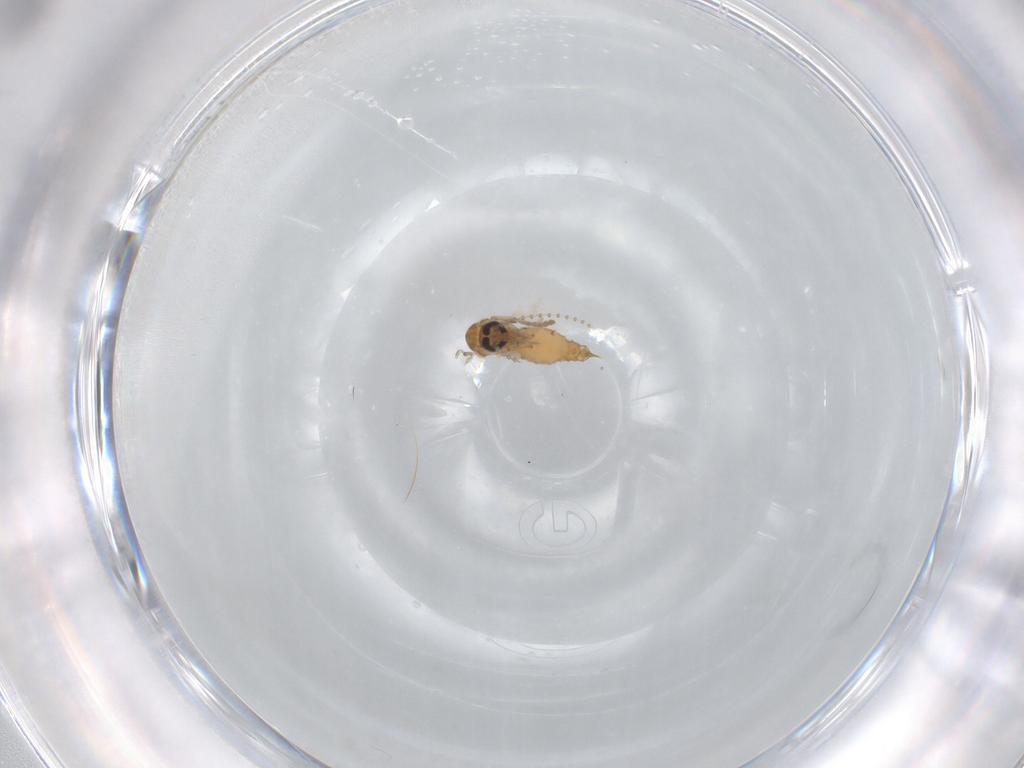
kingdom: Animalia
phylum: Arthropoda
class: Insecta
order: Diptera
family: Psychodidae
